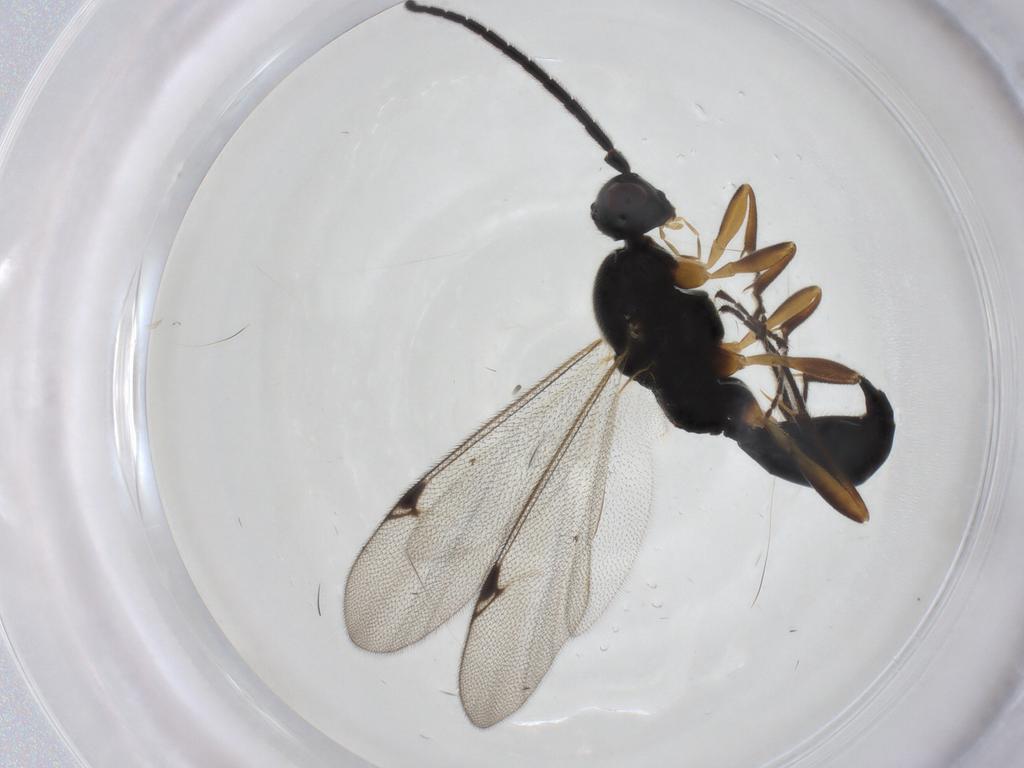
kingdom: Animalia
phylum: Arthropoda
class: Insecta
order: Hymenoptera
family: Proctotrupidae
